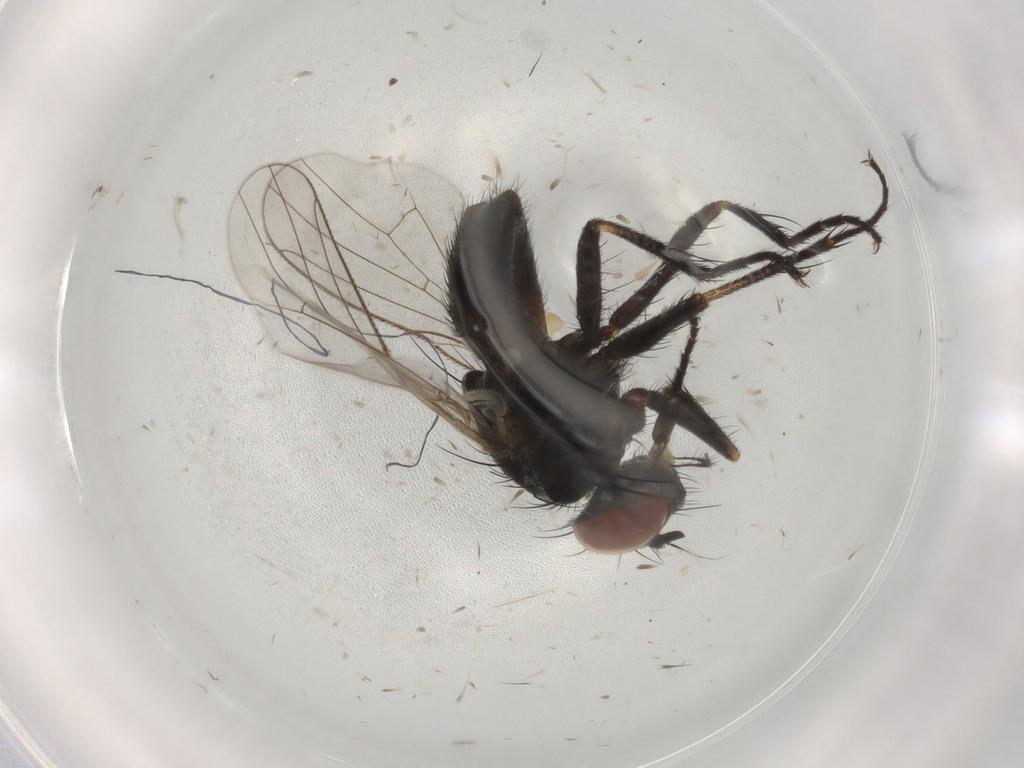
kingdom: Animalia
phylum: Arthropoda
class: Insecta
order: Diptera
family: Muscidae
